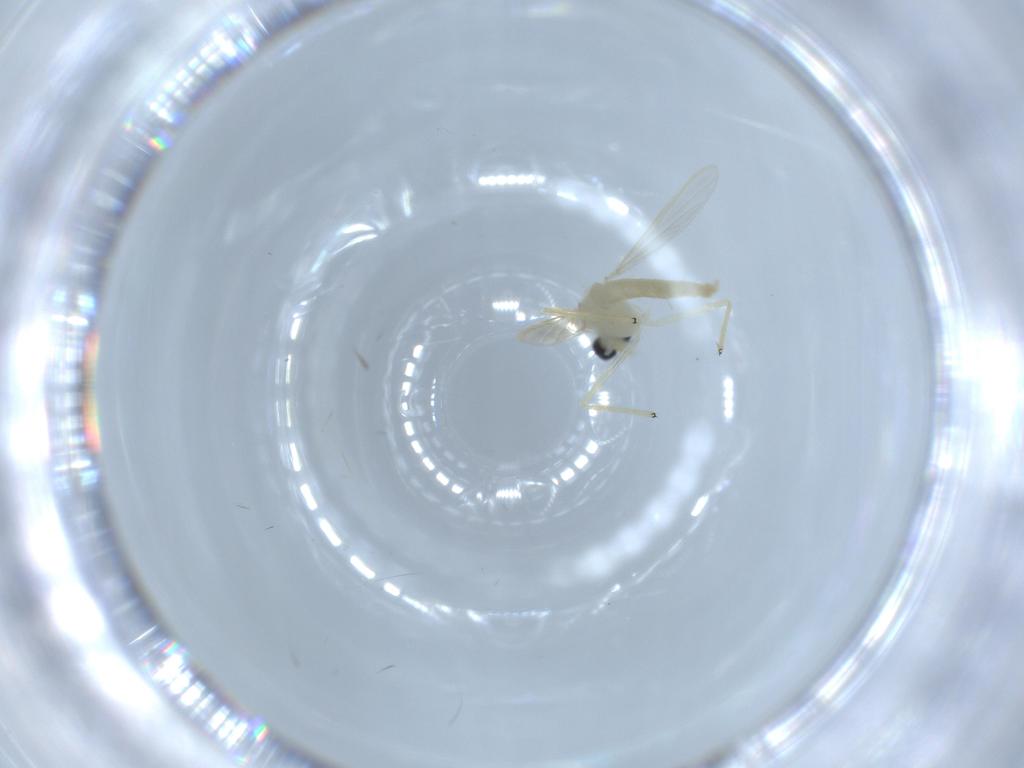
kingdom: Animalia
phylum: Arthropoda
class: Insecta
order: Diptera
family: Chironomidae
